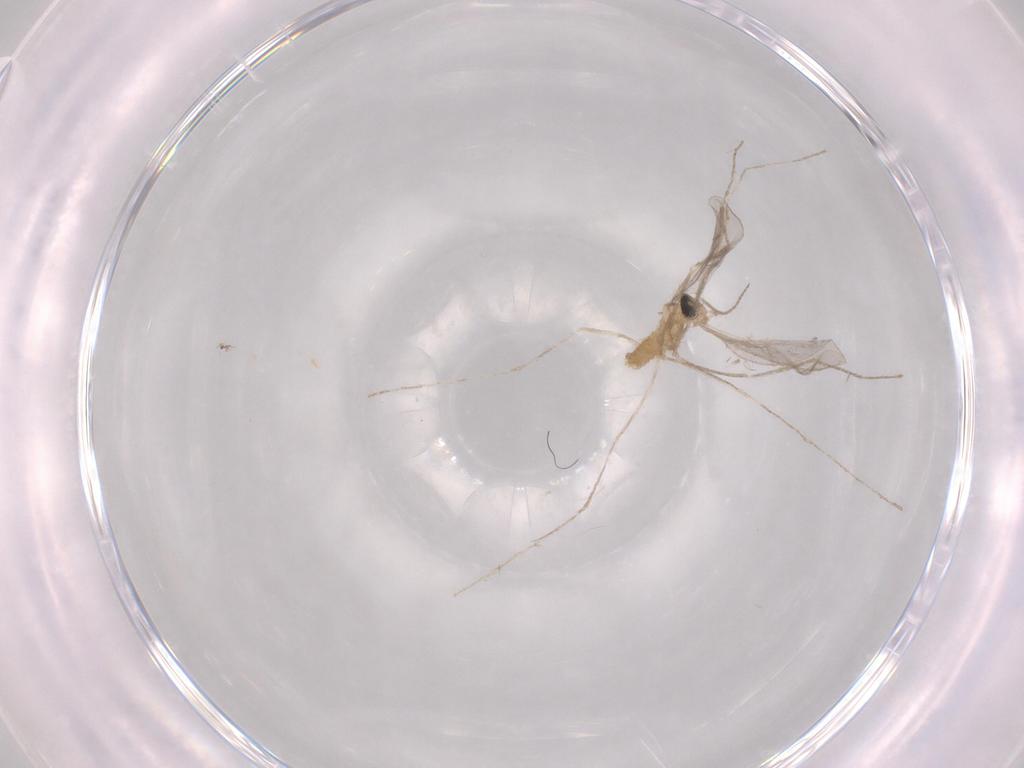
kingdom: Animalia
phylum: Arthropoda
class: Insecta
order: Diptera
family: Cecidomyiidae
